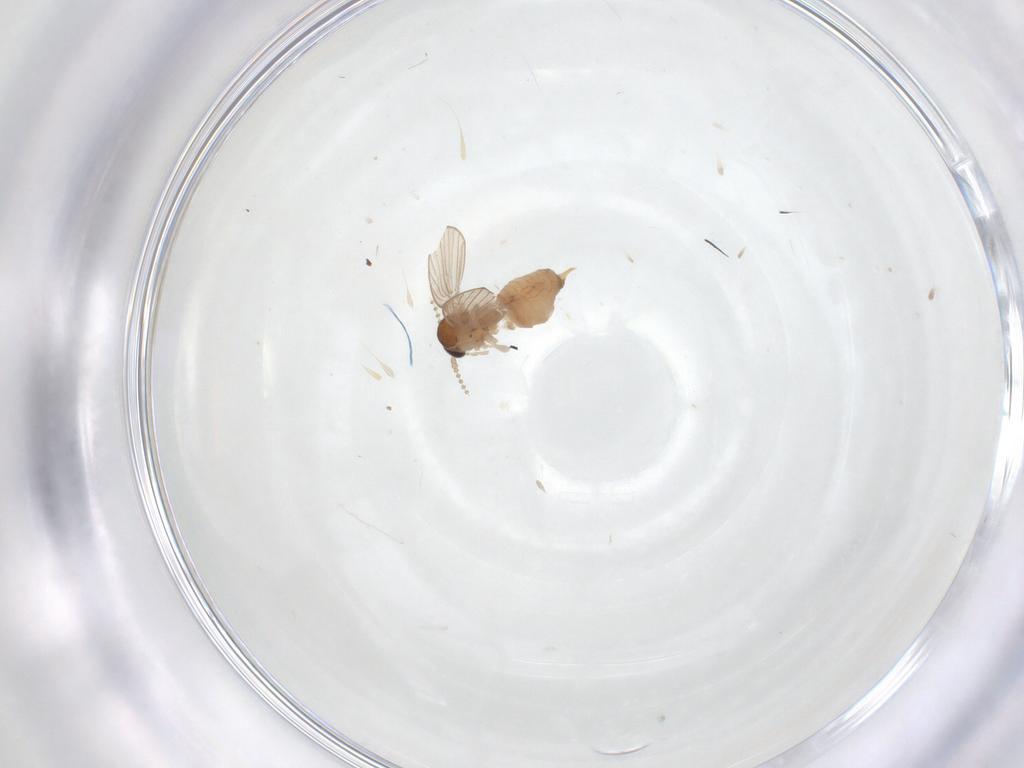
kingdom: Animalia
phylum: Arthropoda
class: Insecta
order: Diptera
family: Psychodidae
